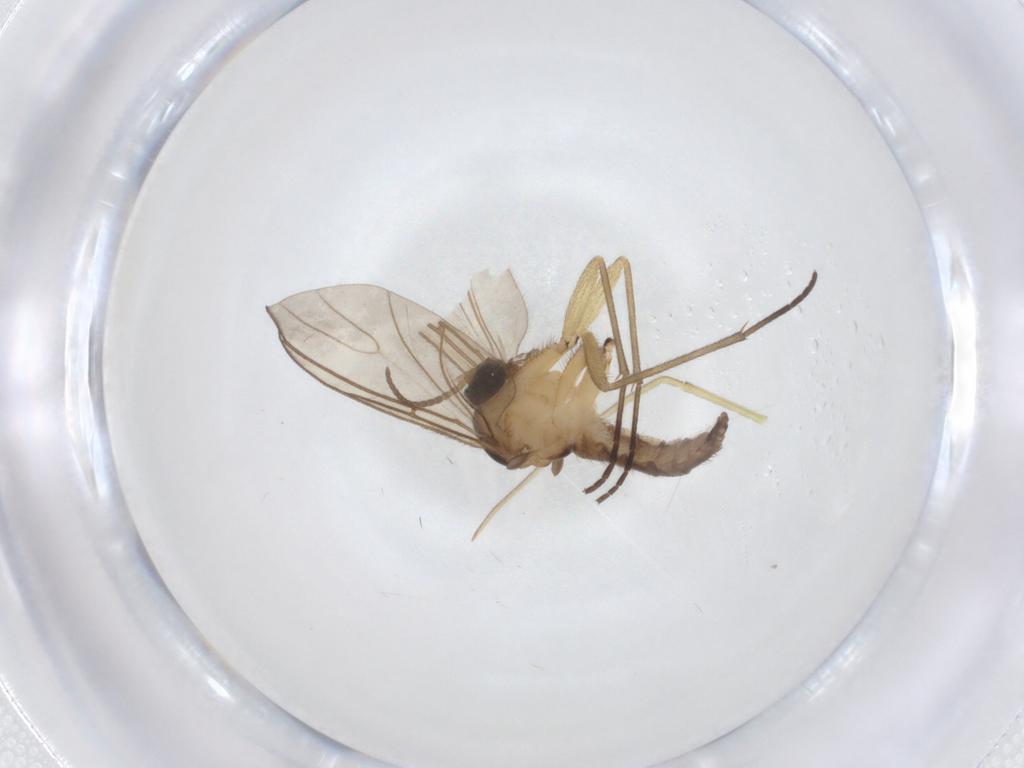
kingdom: Animalia
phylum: Arthropoda
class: Insecta
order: Diptera
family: Sciaridae
